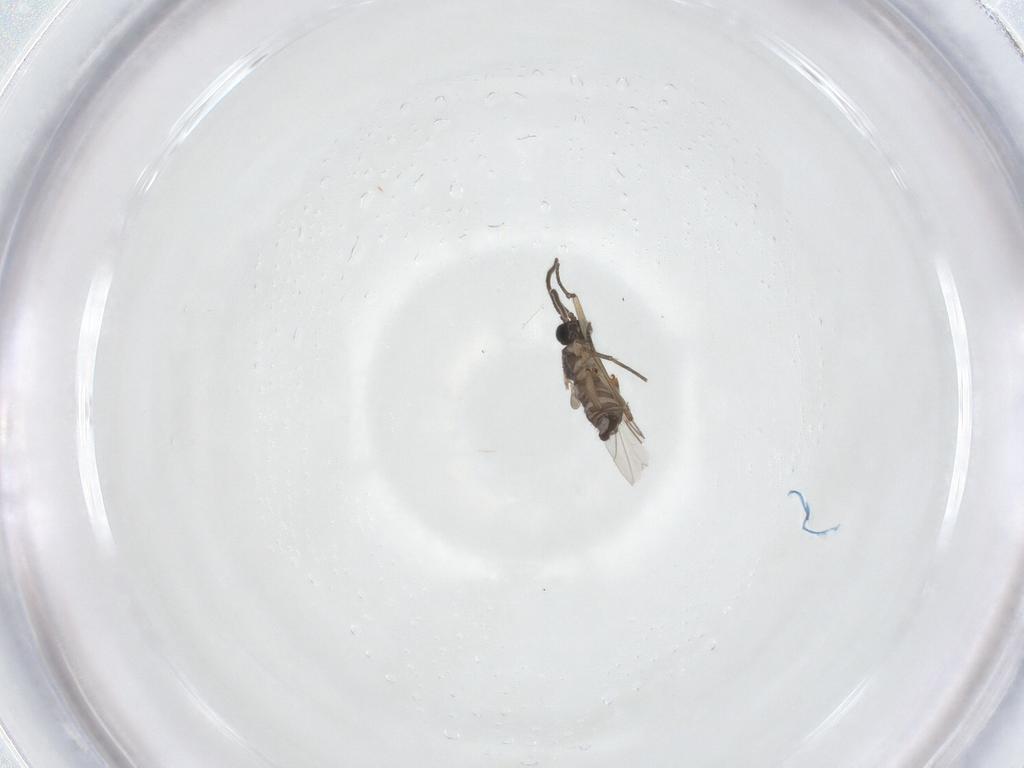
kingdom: Animalia
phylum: Arthropoda
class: Insecta
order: Diptera
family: Sciaridae
